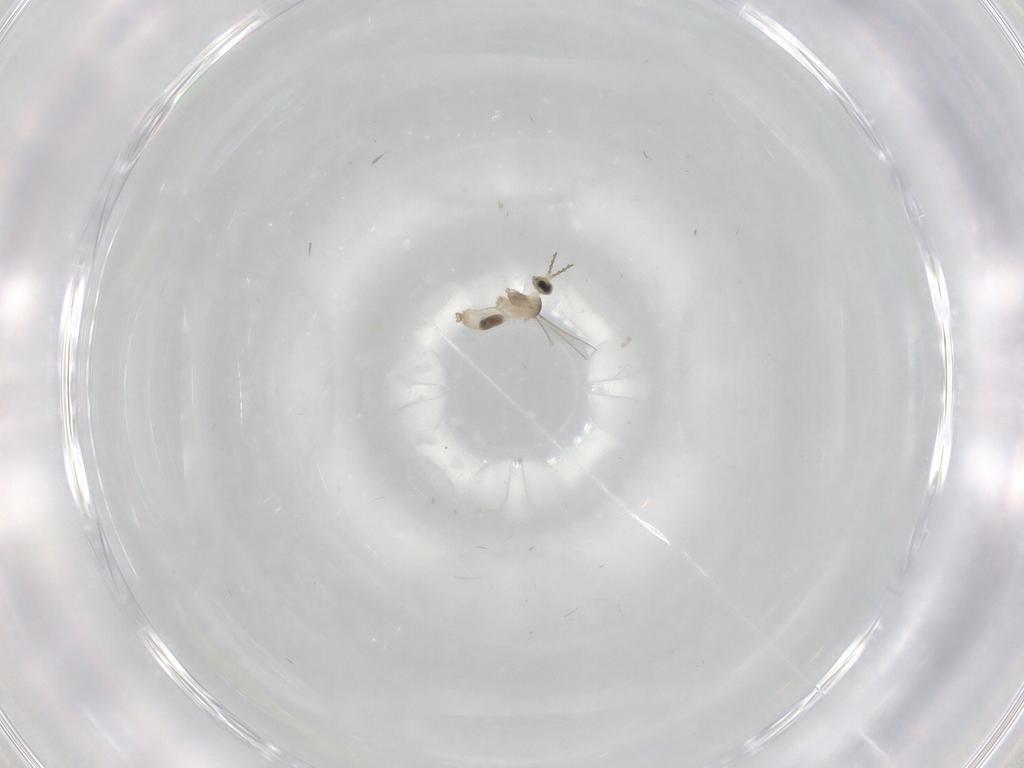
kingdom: Animalia
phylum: Arthropoda
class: Insecta
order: Diptera
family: Cecidomyiidae
